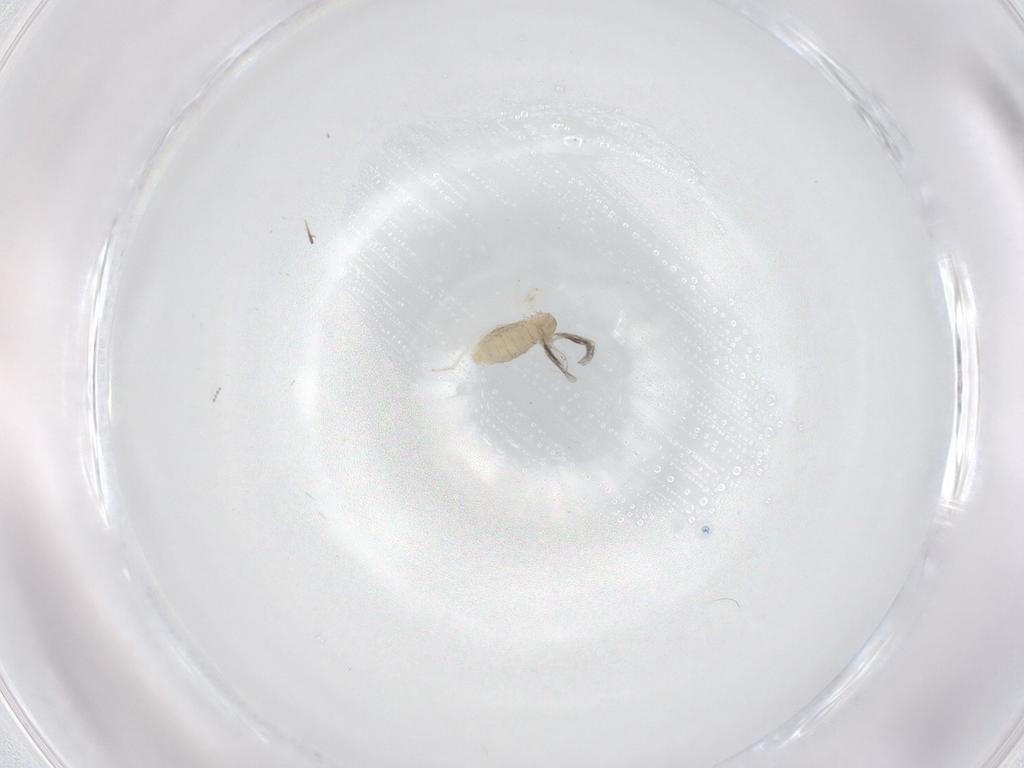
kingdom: Animalia
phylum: Arthropoda
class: Insecta
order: Diptera
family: Cecidomyiidae
